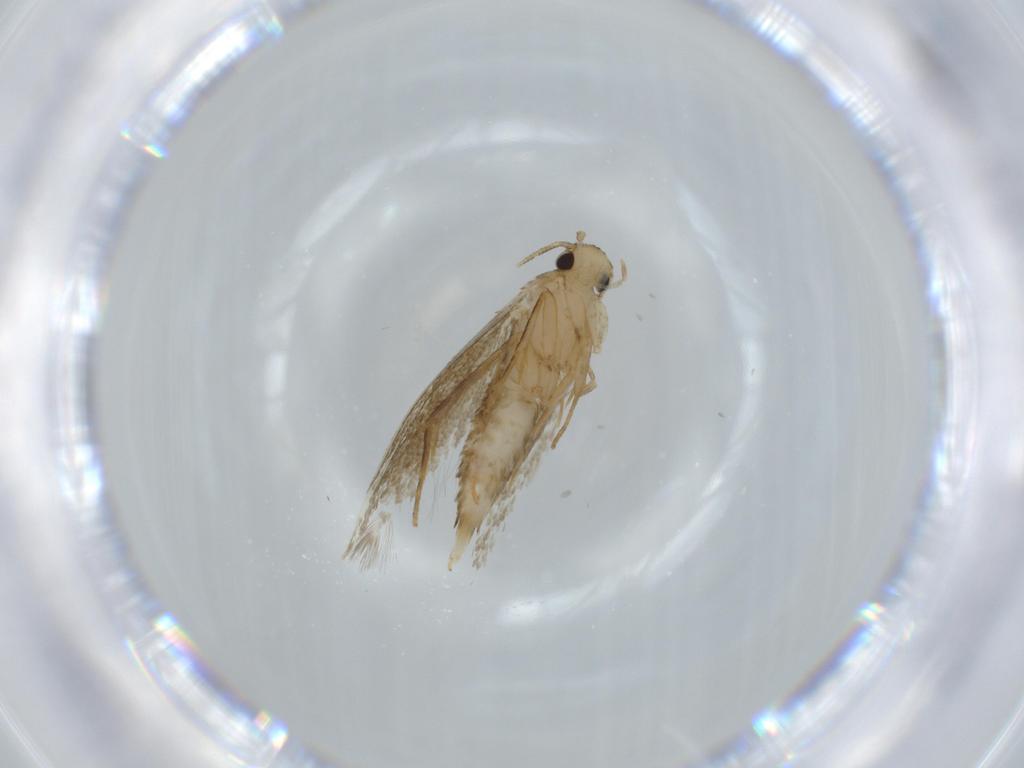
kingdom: Animalia
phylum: Arthropoda
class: Insecta
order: Lepidoptera
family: Tineidae
